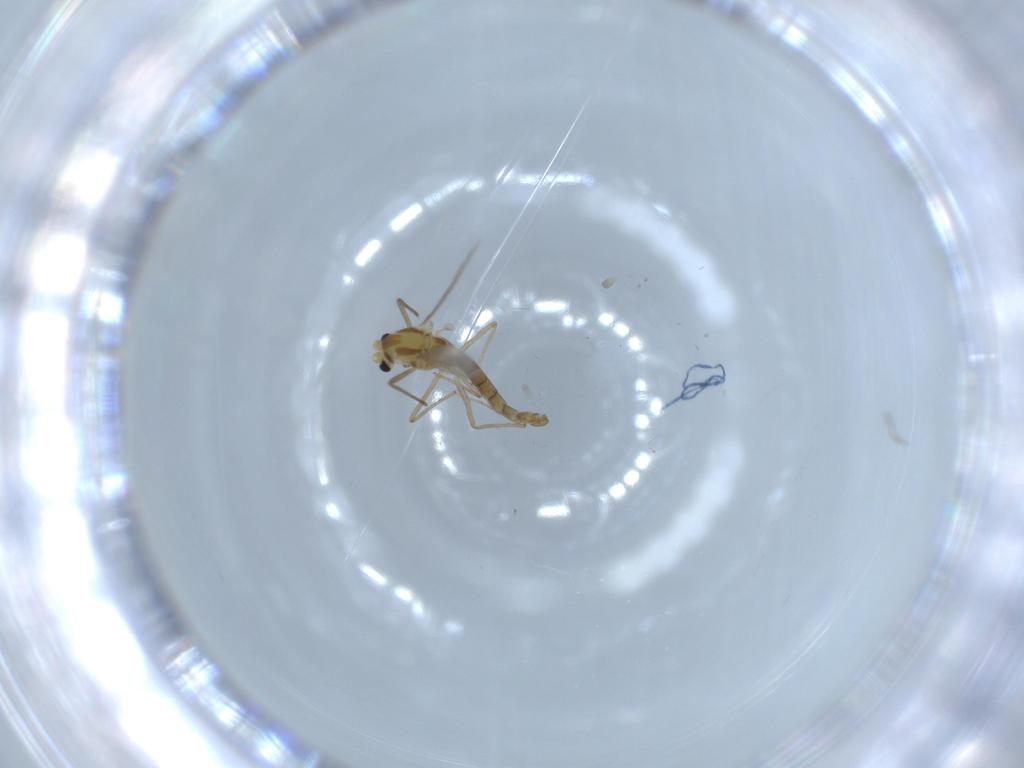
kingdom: Animalia
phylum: Arthropoda
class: Insecta
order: Diptera
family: Chironomidae
